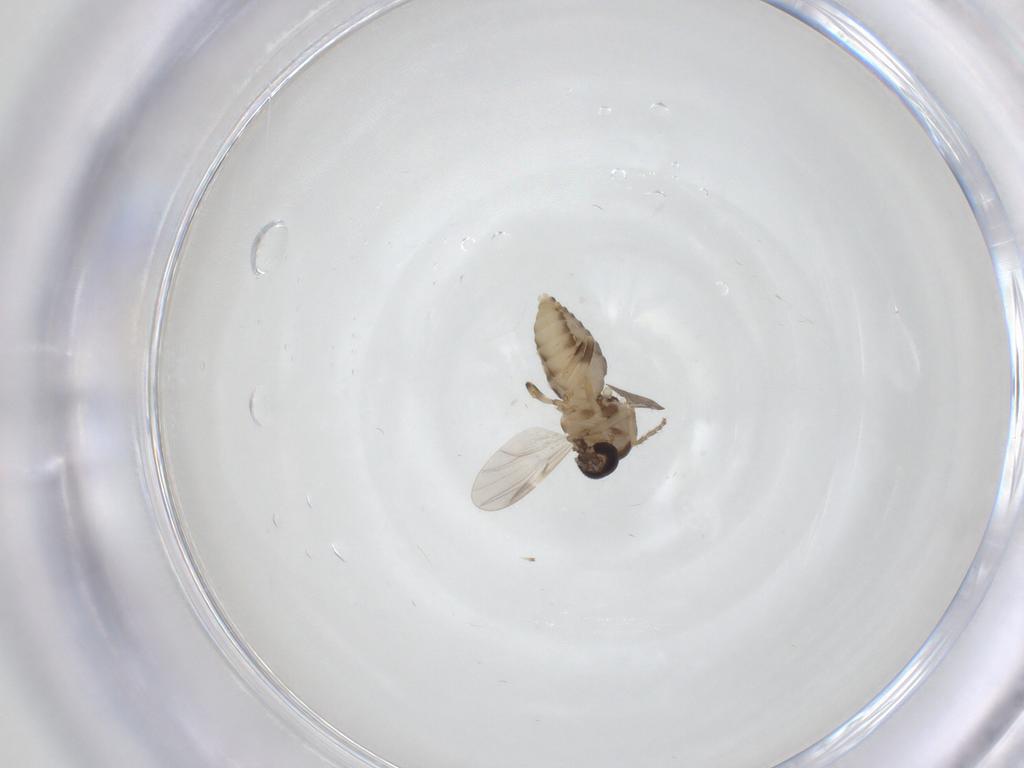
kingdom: Animalia
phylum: Arthropoda
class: Insecta
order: Diptera
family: Ceratopogonidae
